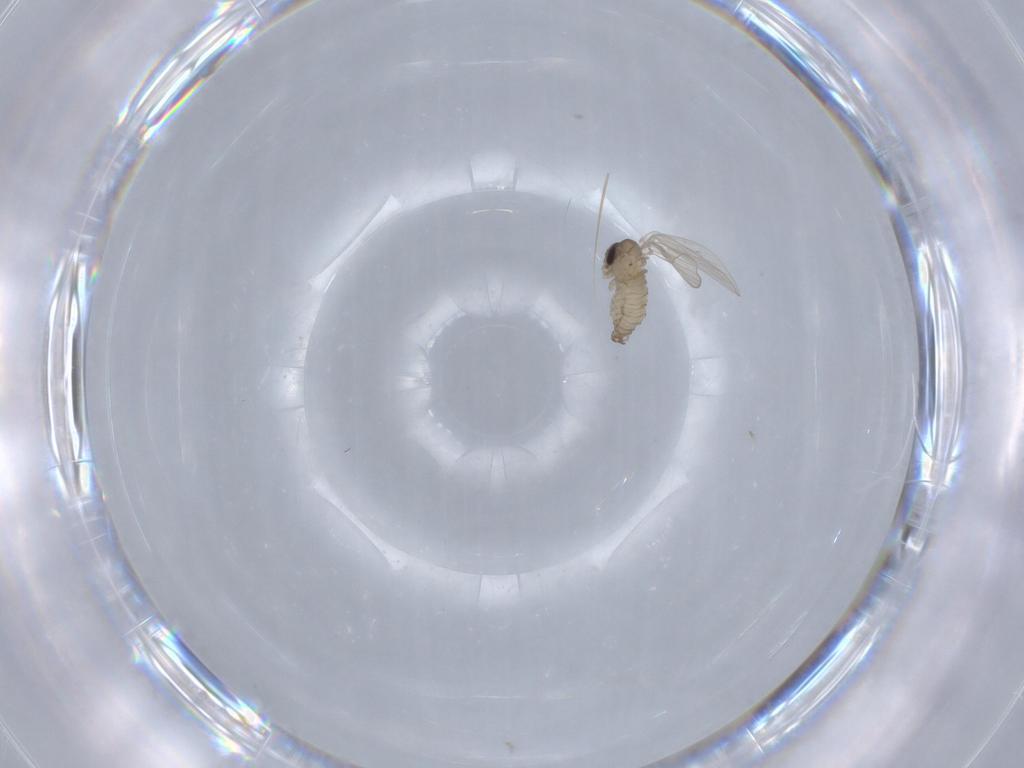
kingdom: Animalia
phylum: Arthropoda
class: Insecta
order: Diptera
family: Psychodidae
